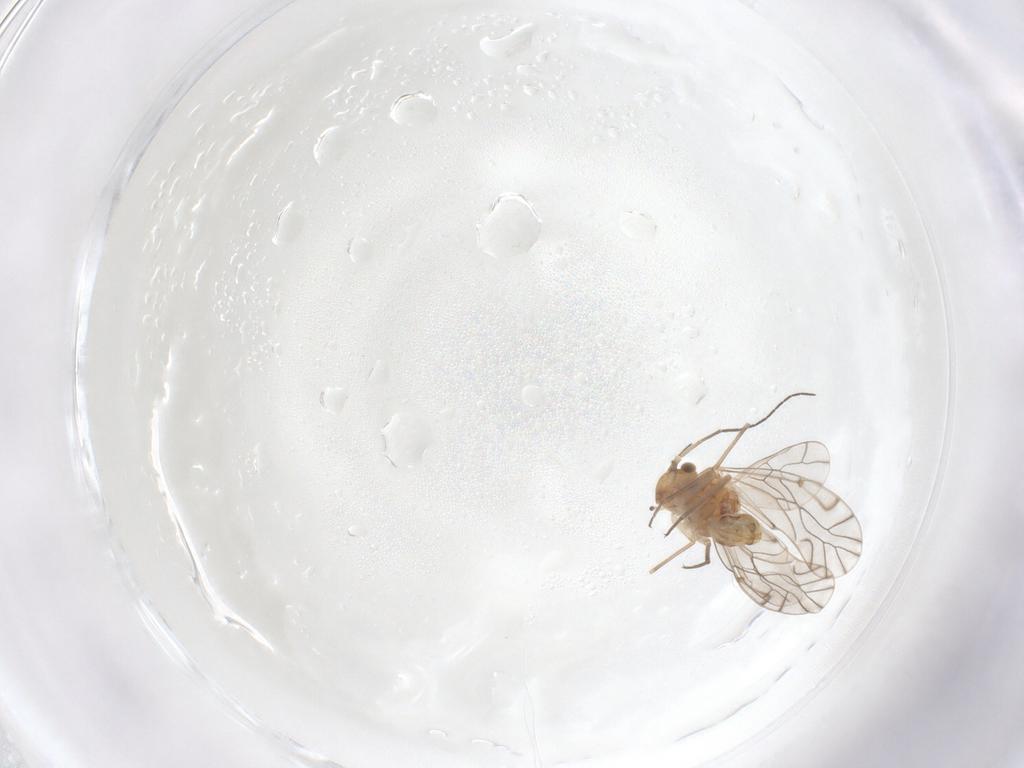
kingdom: Animalia
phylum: Arthropoda
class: Insecta
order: Psocodea
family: Lachesillidae
